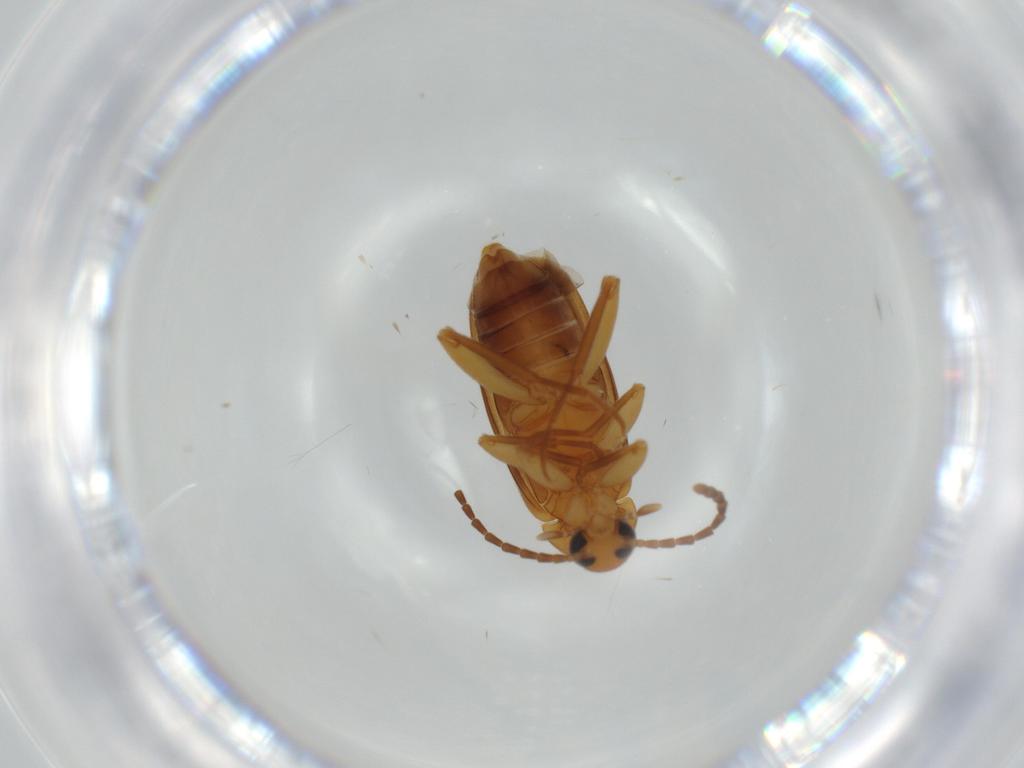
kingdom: Animalia
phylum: Arthropoda
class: Insecta
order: Coleoptera
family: Scraptiidae
